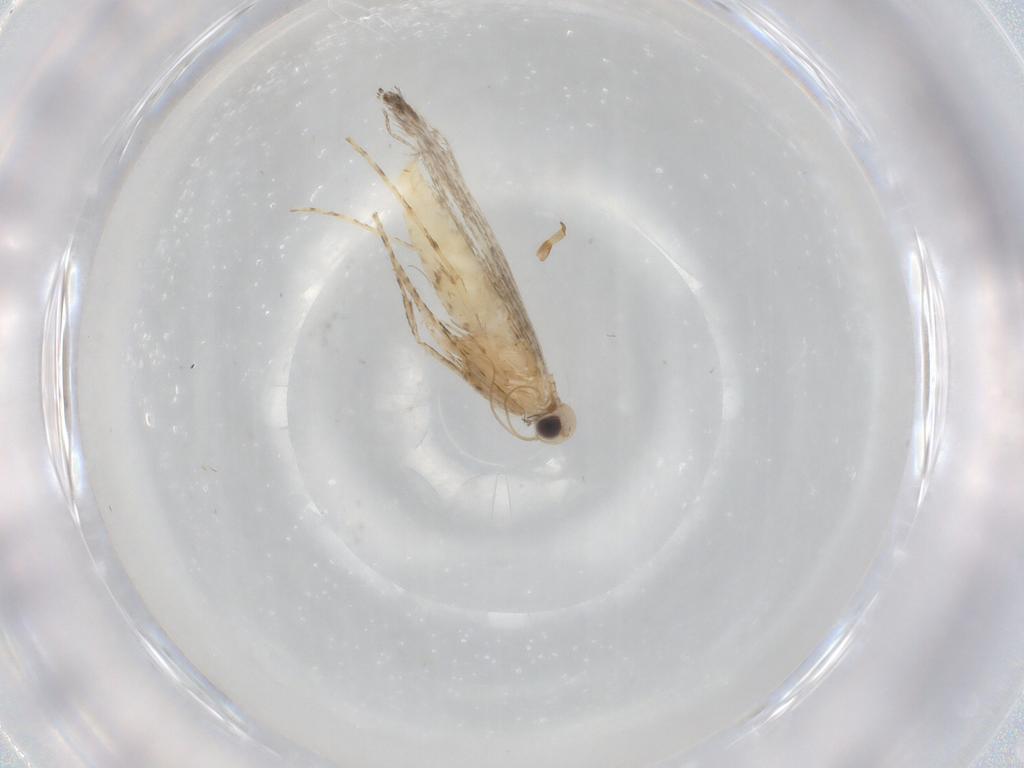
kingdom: Animalia
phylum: Arthropoda
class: Insecta
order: Lepidoptera
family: Gracillariidae
